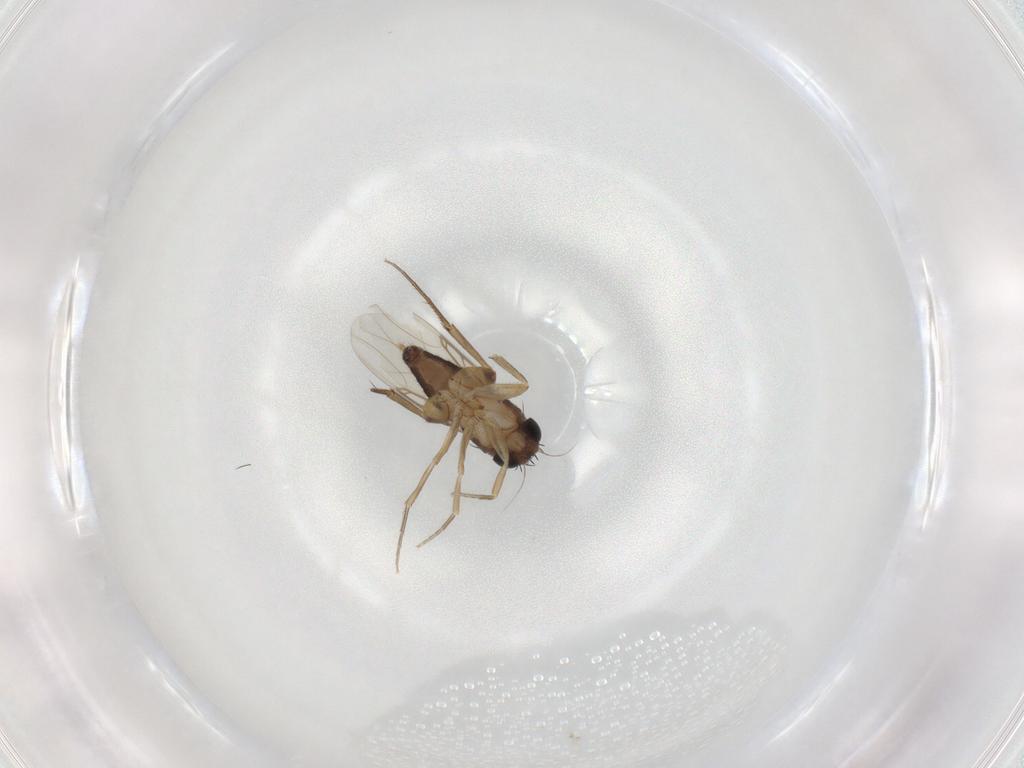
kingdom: Animalia
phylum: Arthropoda
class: Insecta
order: Diptera
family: Phoridae
